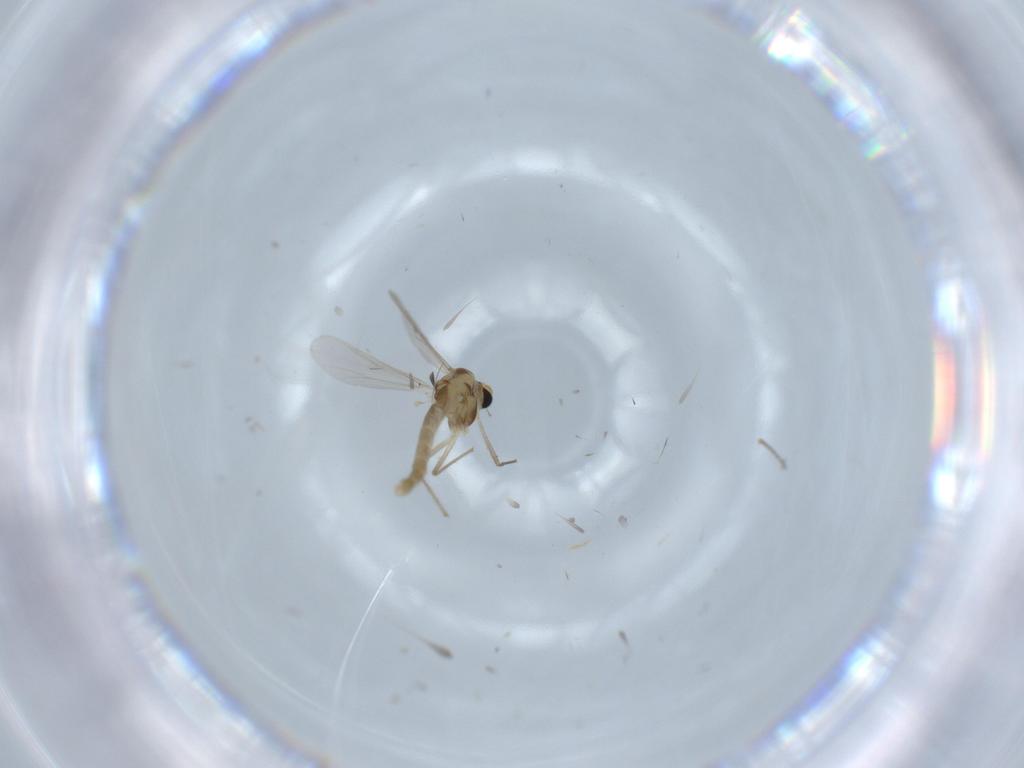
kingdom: Animalia
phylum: Arthropoda
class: Insecta
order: Diptera
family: Ceratopogonidae
